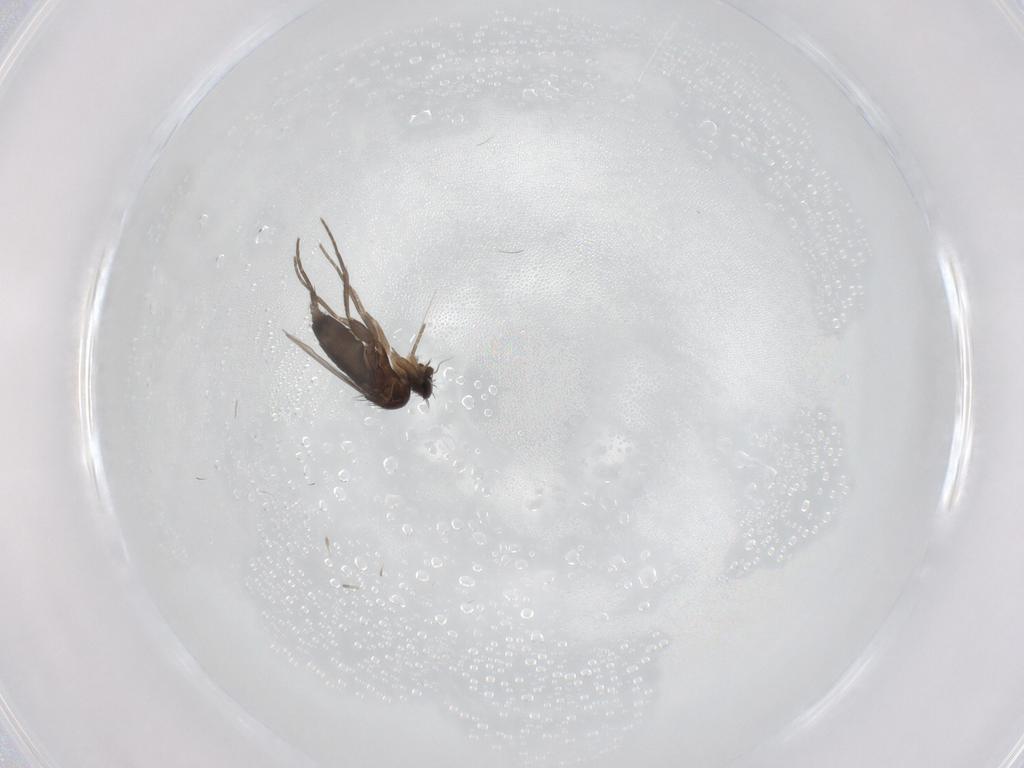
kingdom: Animalia
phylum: Arthropoda
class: Insecta
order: Diptera
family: Phoridae
